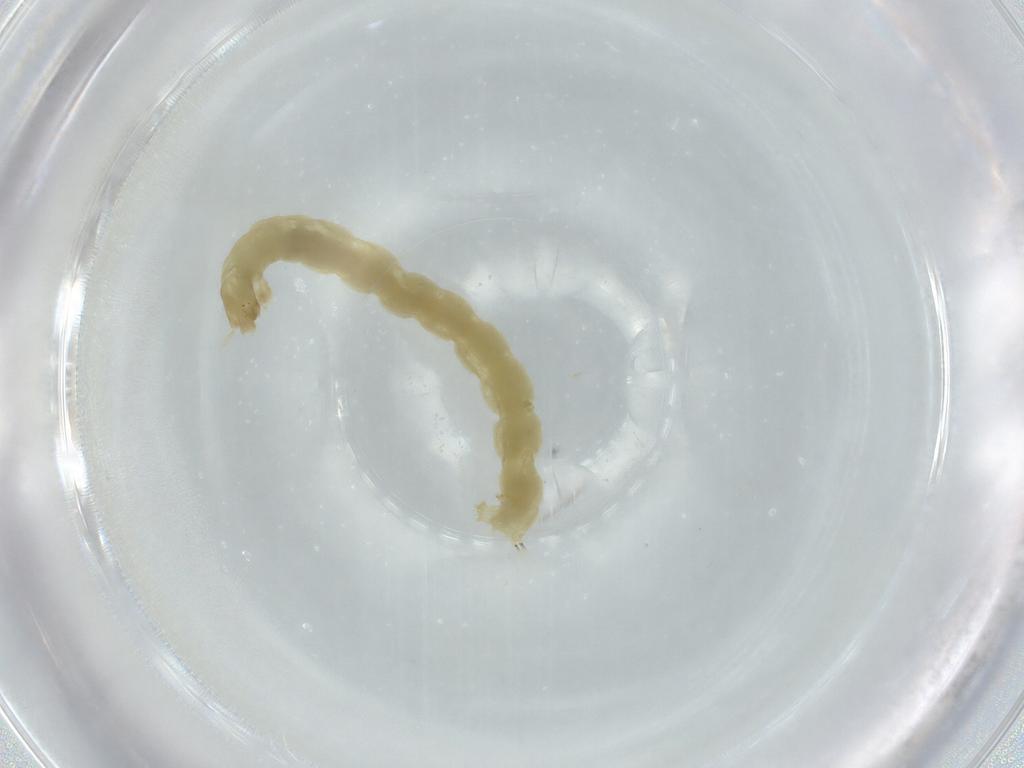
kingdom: Animalia
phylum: Arthropoda
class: Insecta
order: Diptera
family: Chironomidae
